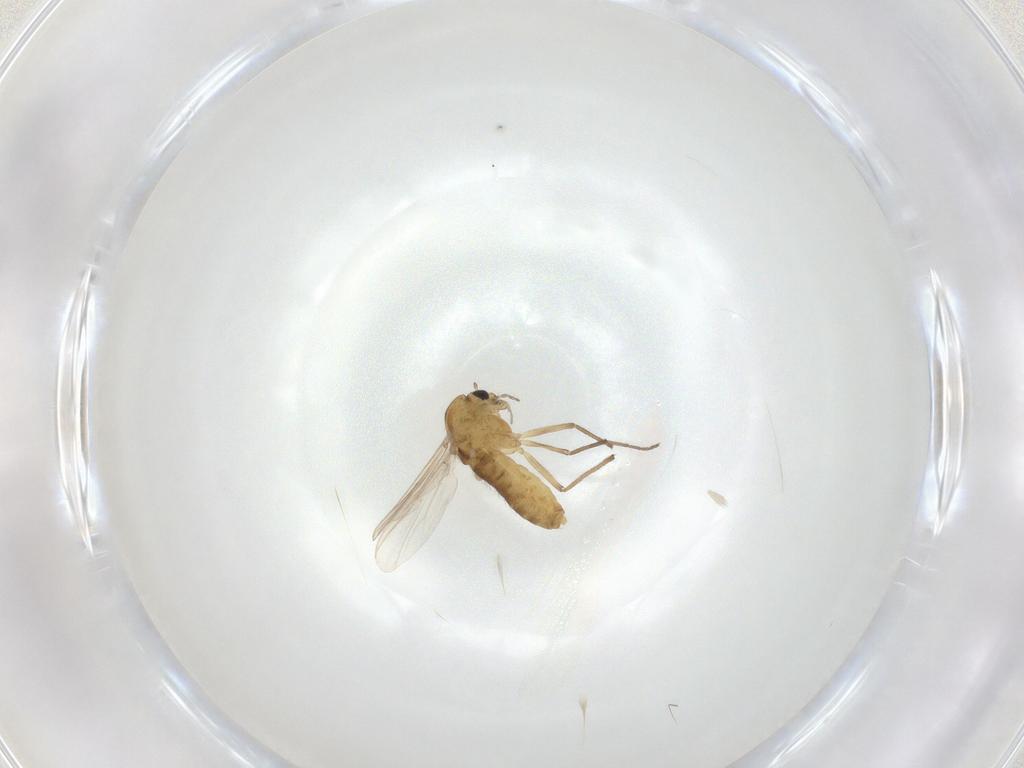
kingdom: Animalia
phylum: Arthropoda
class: Insecta
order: Diptera
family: Chironomidae
